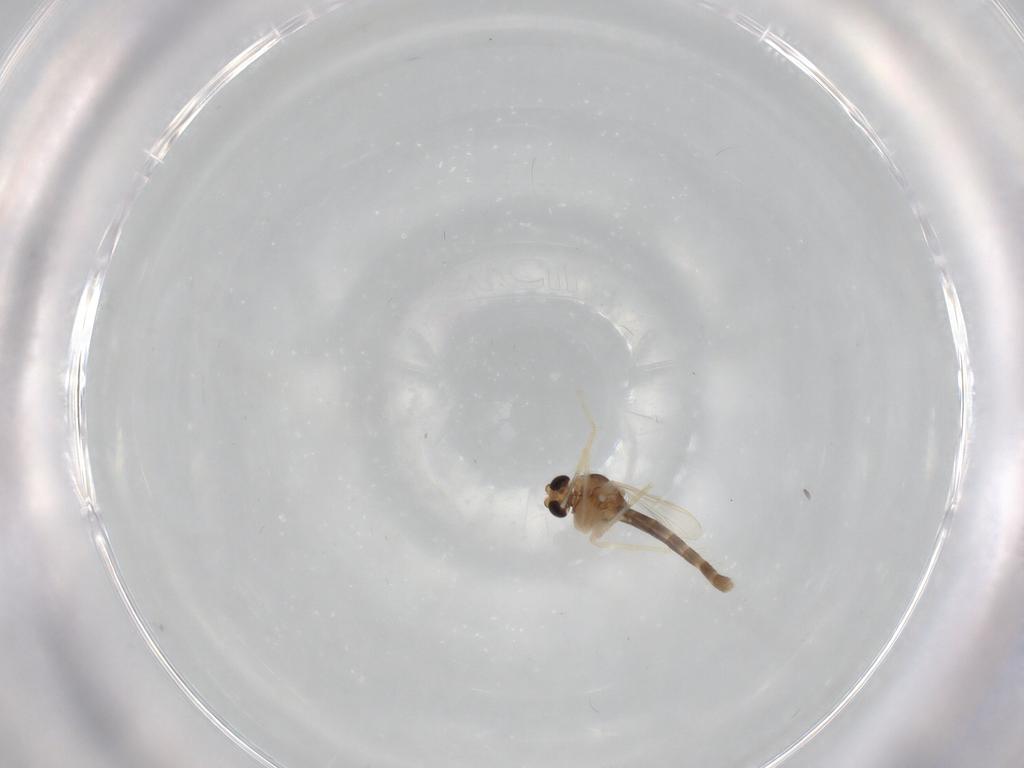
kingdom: Animalia
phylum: Arthropoda
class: Insecta
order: Diptera
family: Chironomidae
